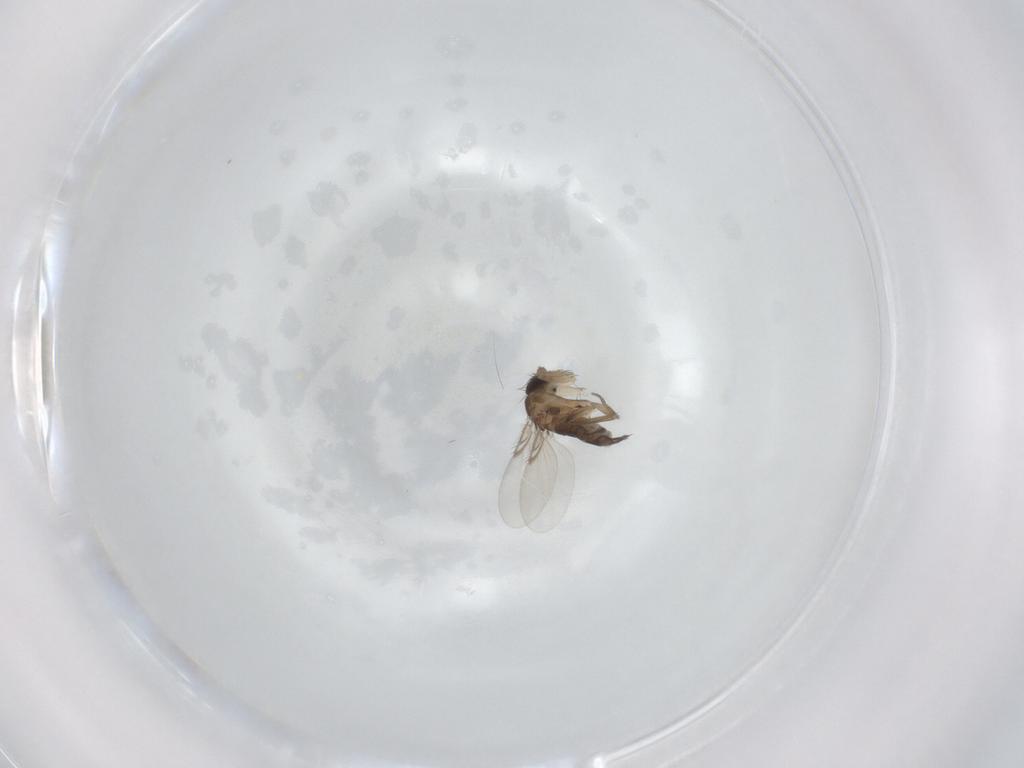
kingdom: Animalia
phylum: Arthropoda
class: Insecta
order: Diptera
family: Phoridae
